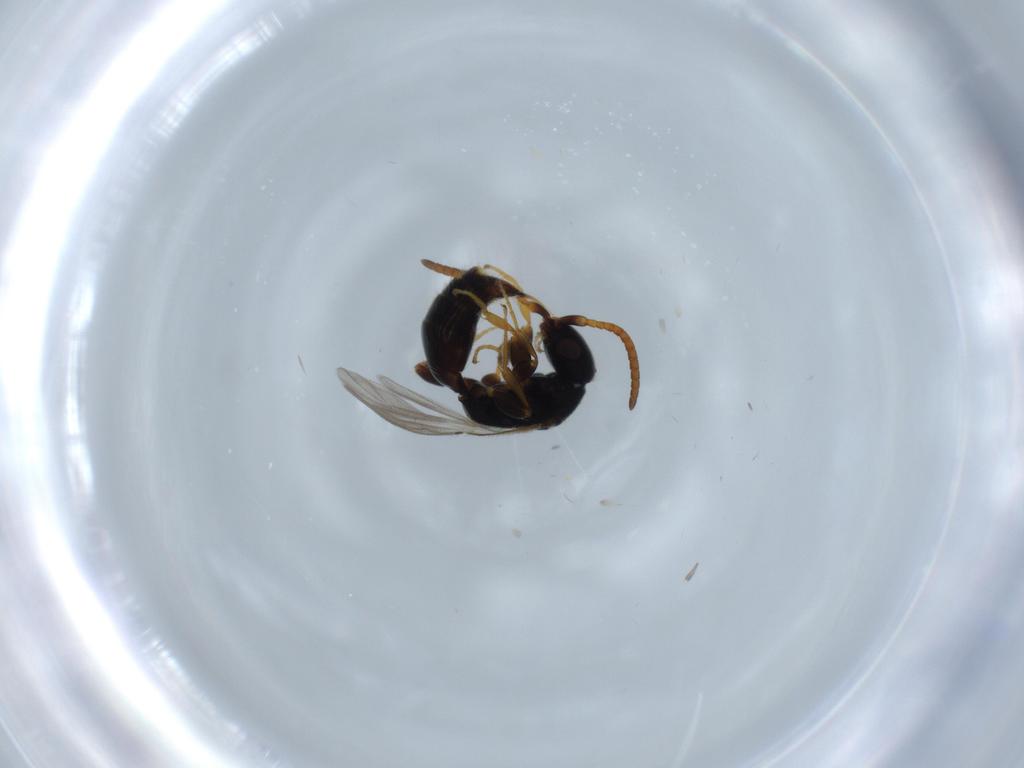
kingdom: Animalia
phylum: Arthropoda
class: Insecta
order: Hymenoptera
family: Bethylidae
